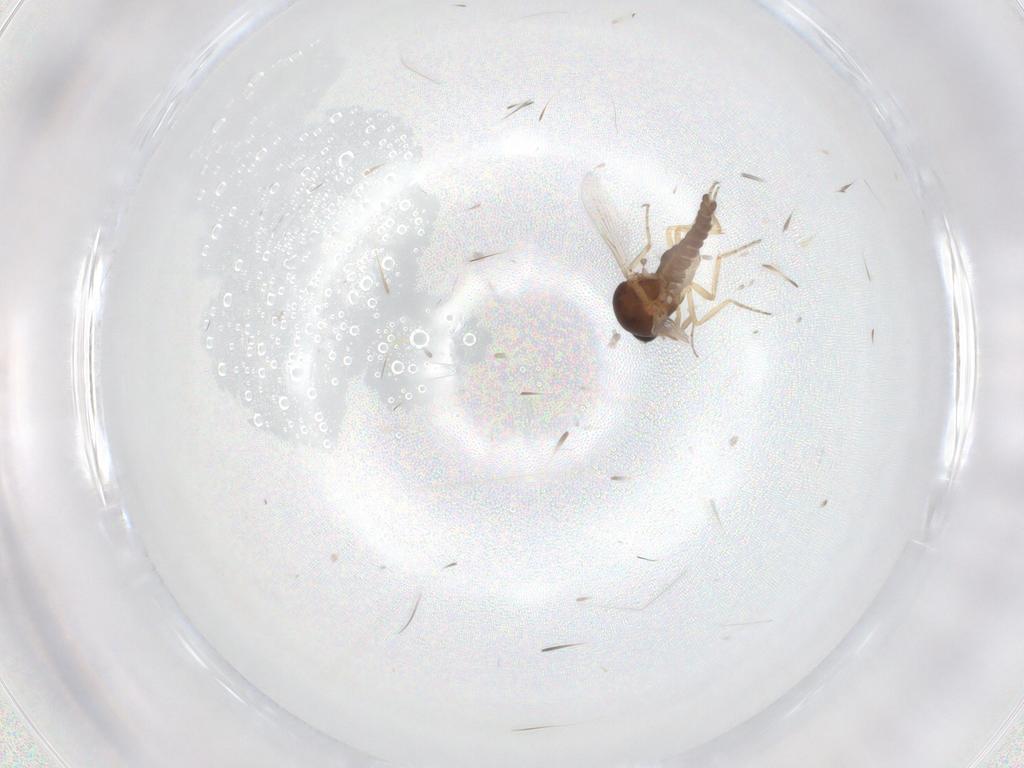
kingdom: Animalia
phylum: Arthropoda
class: Insecta
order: Diptera
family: Ceratopogonidae
